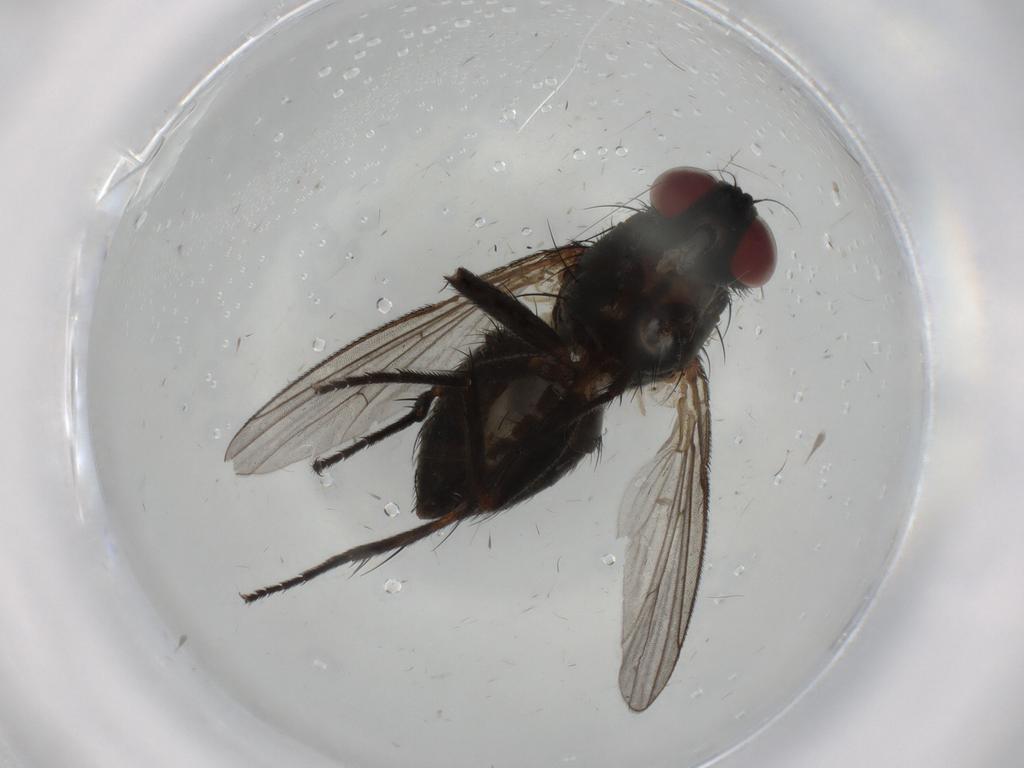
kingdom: Animalia
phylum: Arthropoda
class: Insecta
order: Diptera
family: Muscidae
